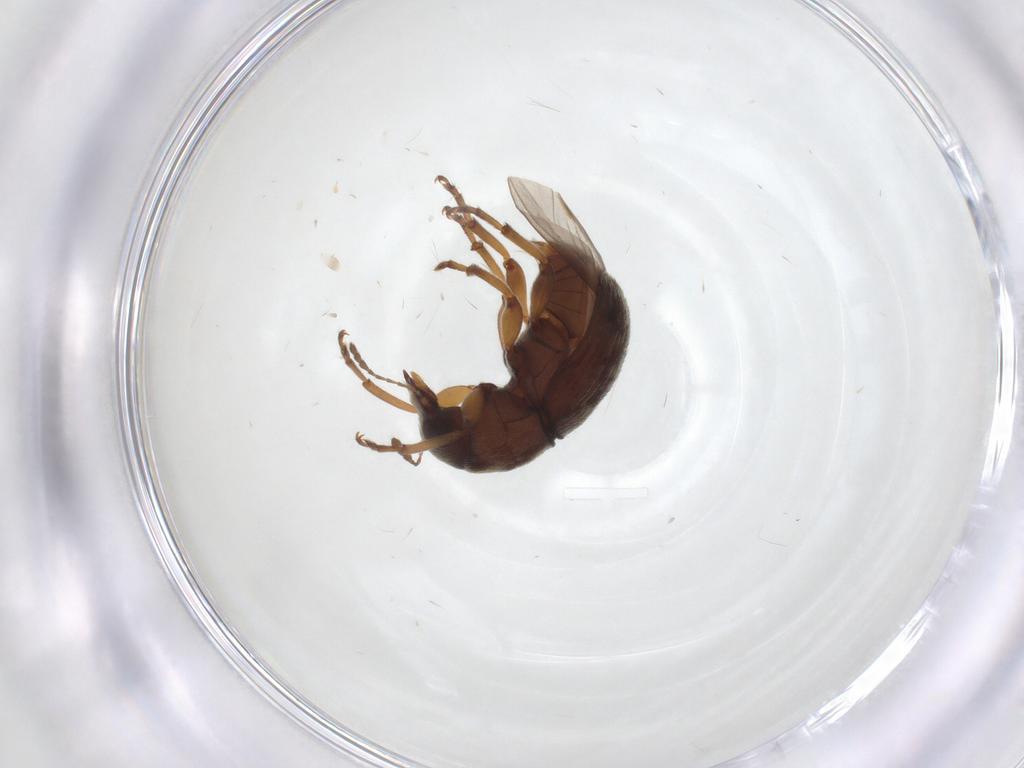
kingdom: Animalia
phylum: Arthropoda
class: Insecta
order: Coleoptera
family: Anthribidae
